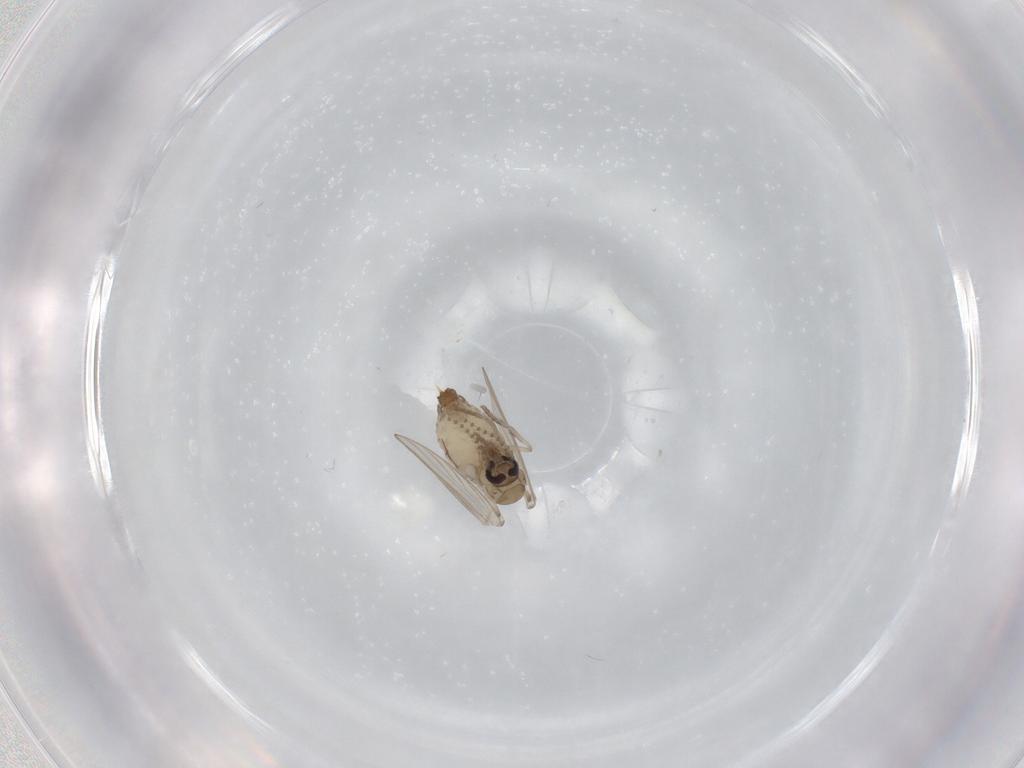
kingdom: Animalia
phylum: Arthropoda
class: Insecta
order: Diptera
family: Psychodidae
